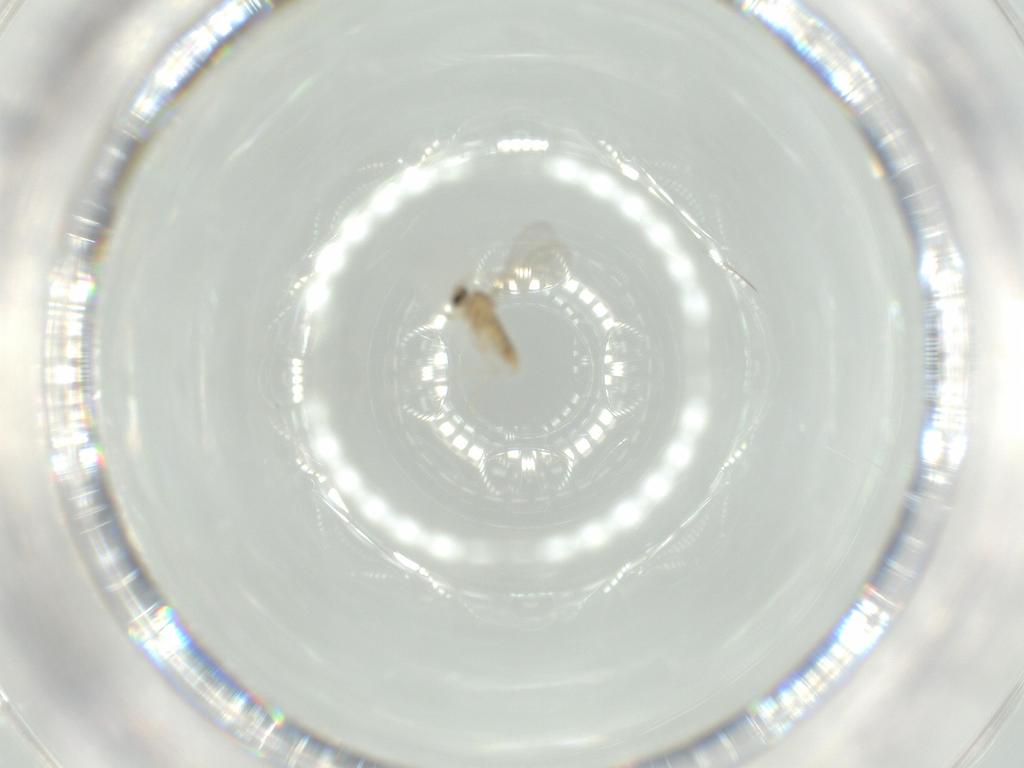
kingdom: Animalia
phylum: Arthropoda
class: Insecta
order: Diptera
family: Cecidomyiidae
